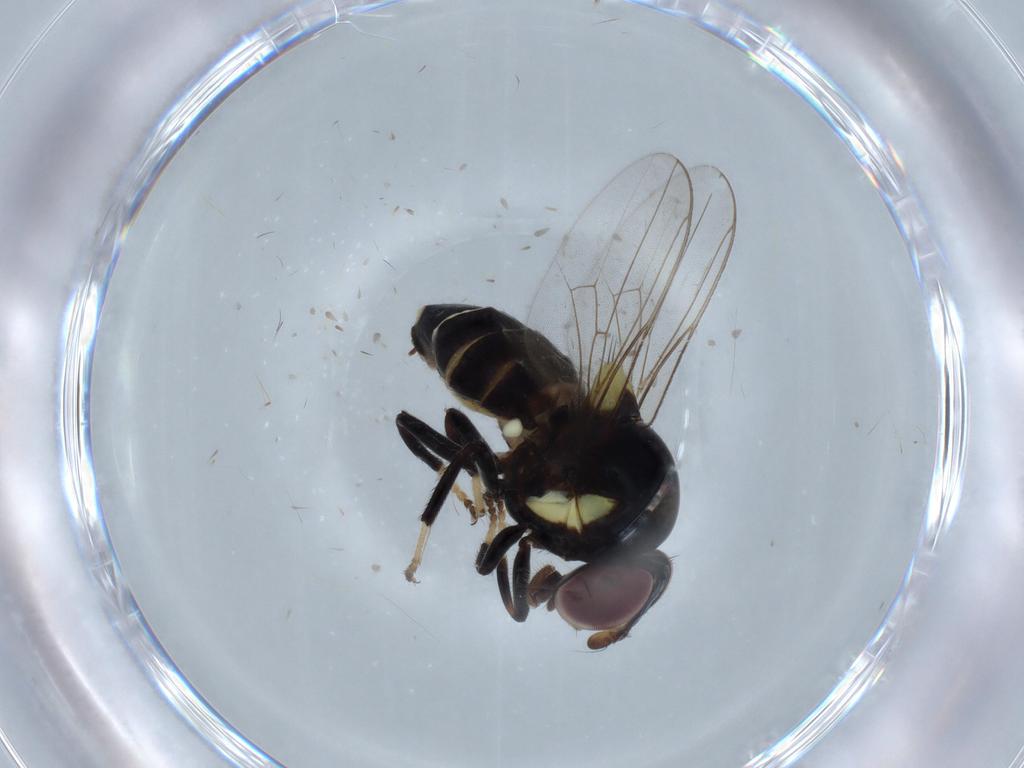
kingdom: Animalia
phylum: Arthropoda
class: Insecta
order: Diptera
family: Chloropidae
